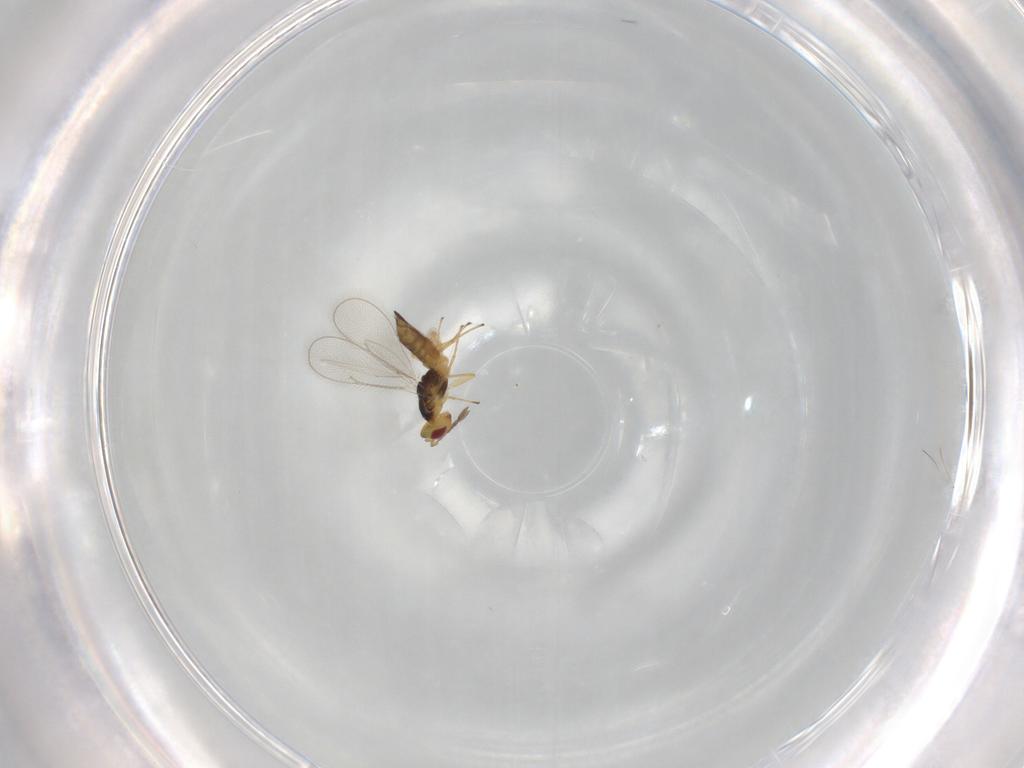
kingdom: Animalia
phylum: Arthropoda
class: Insecta
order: Hymenoptera
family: Eulophidae
